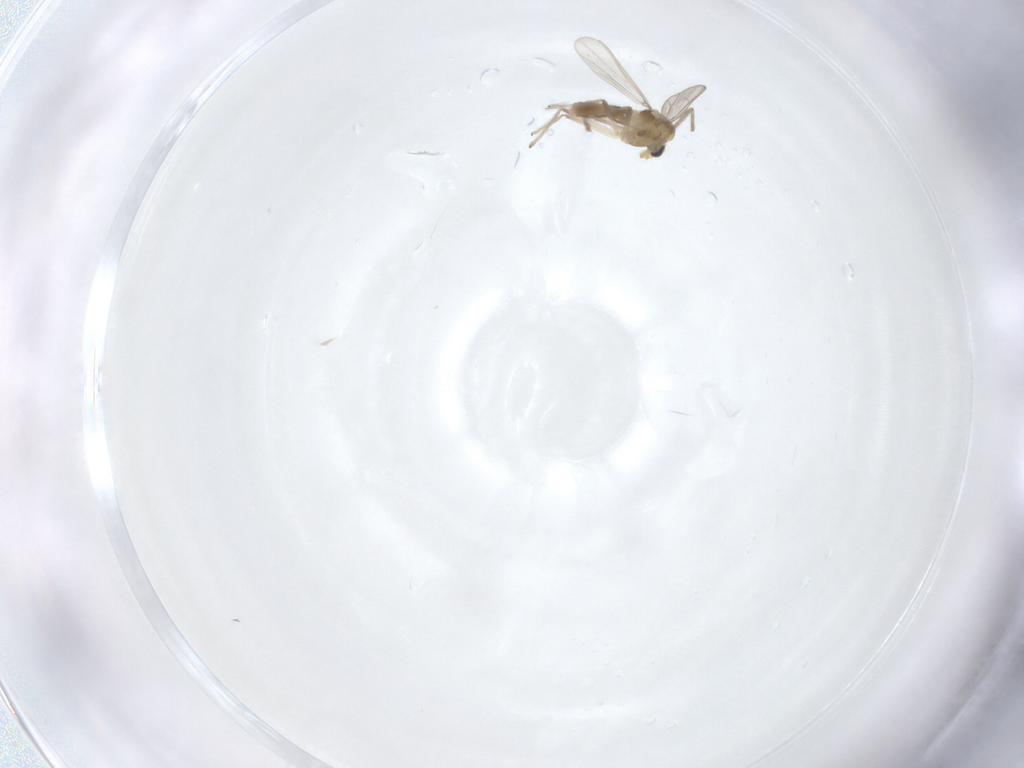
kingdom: Animalia
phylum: Arthropoda
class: Insecta
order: Diptera
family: Chironomidae
